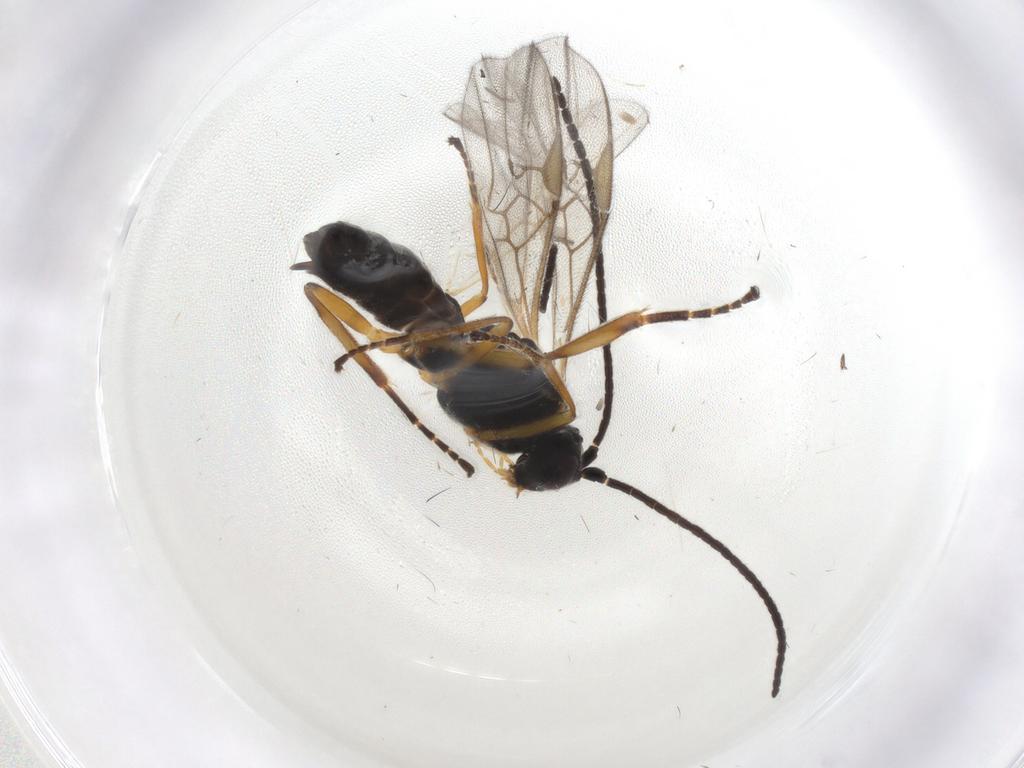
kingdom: Animalia
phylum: Arthropoda
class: Insecta
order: Hymenoptera
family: Braconidae
